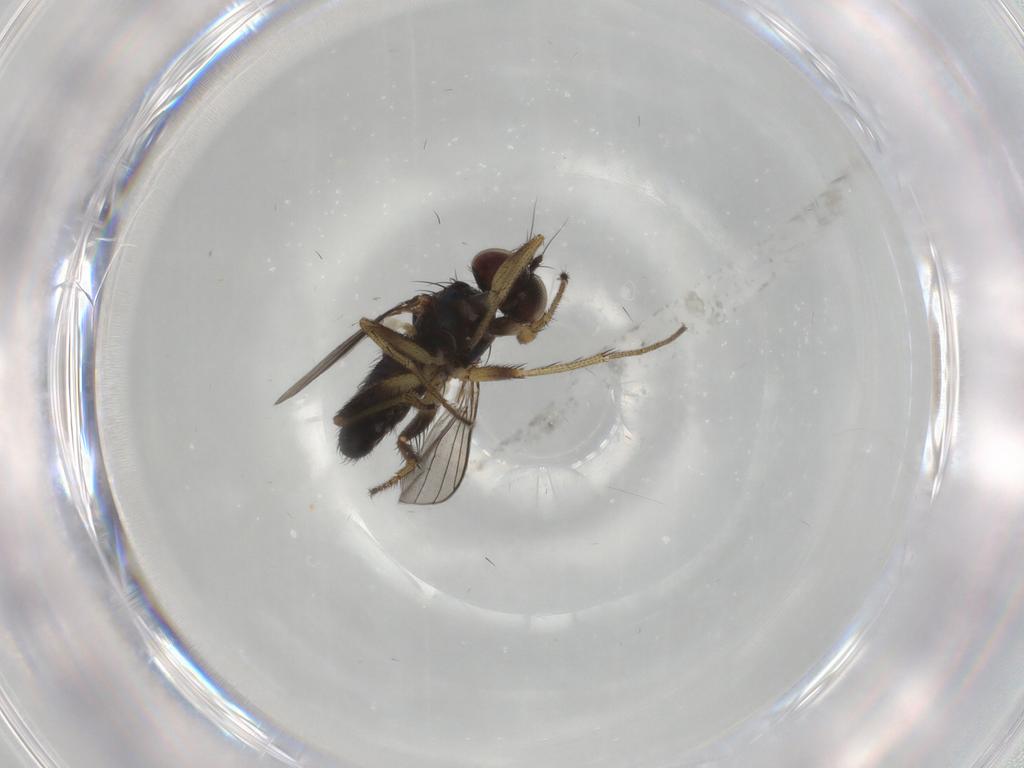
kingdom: Animalia
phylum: Arthropoda
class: Insecta
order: Diptera
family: Dolichopodidae
